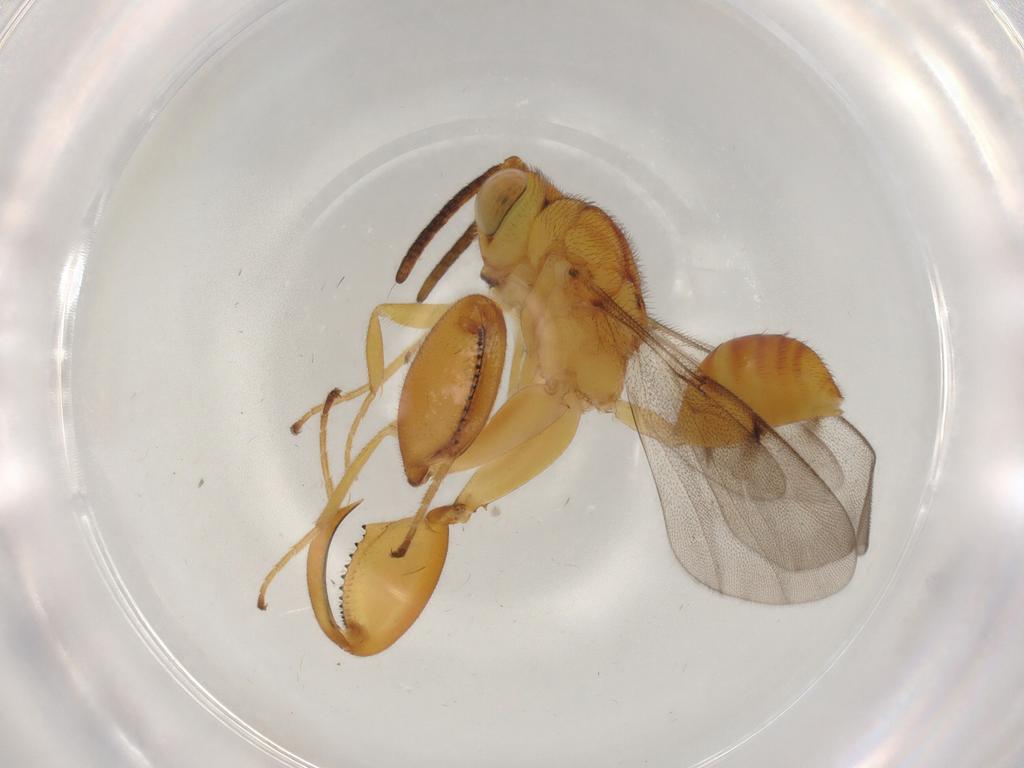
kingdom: Animalia
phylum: Arthropoda
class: Insecta
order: Hymenoptera
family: Chalcididae
